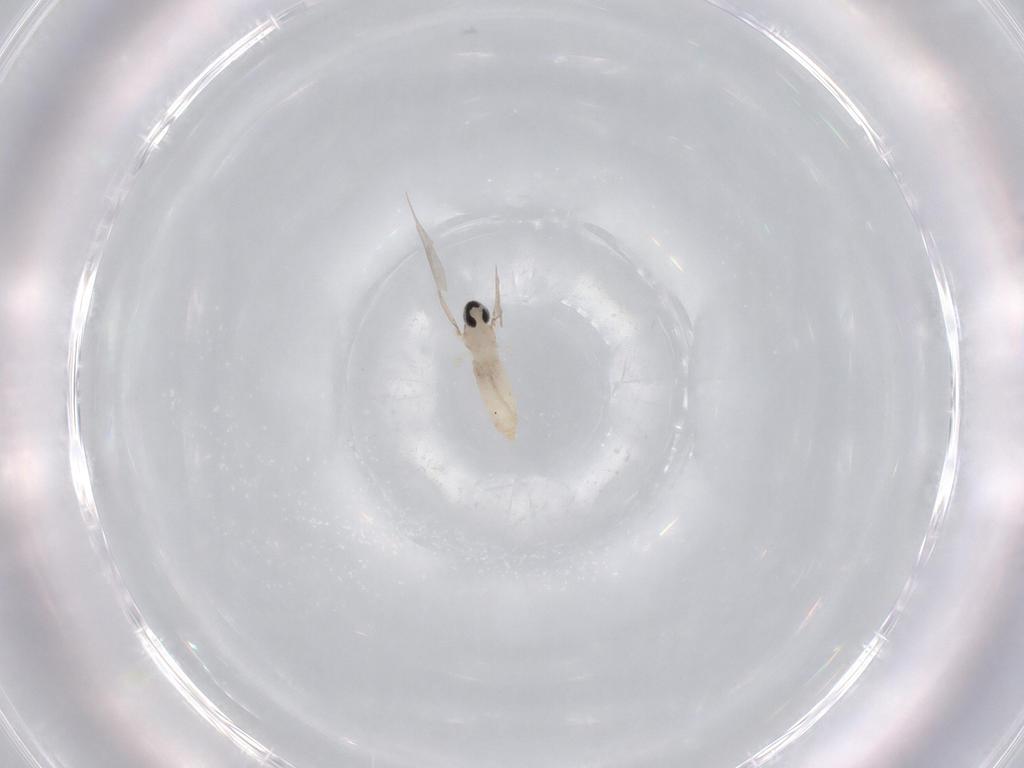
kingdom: Animalia
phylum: Arthropoda
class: Insecta
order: Diptera
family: Cecidomyiidae
